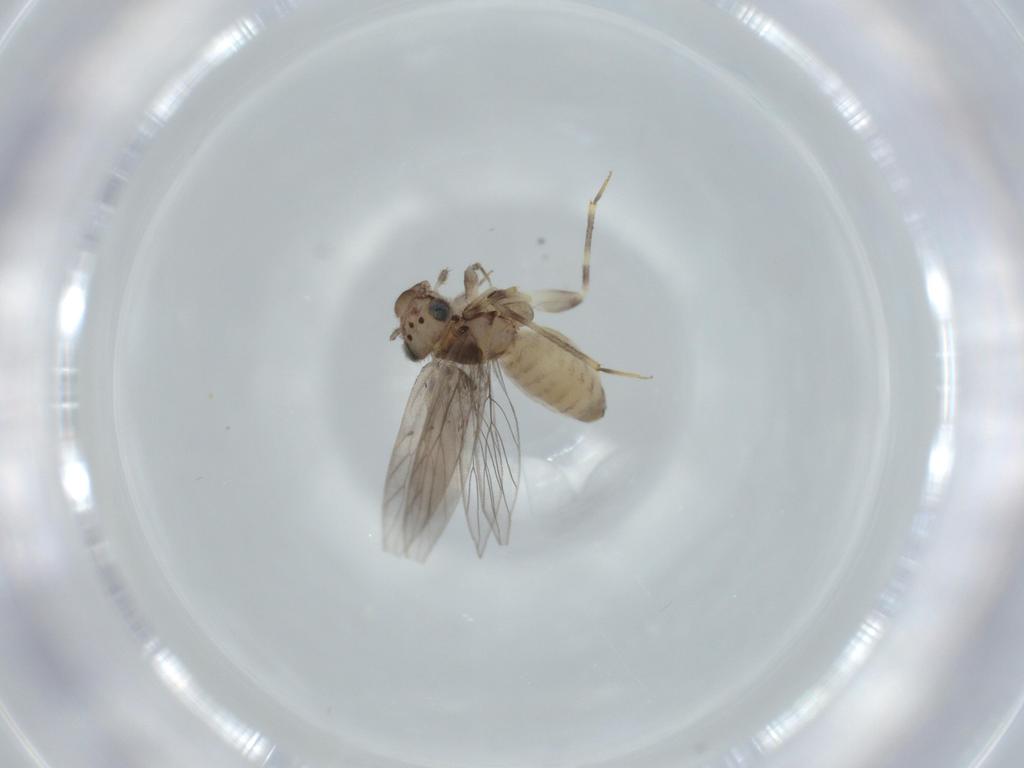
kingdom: Animalia
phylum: Arthropoda
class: Insecta
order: Psocodea
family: Lepidopsocidae
